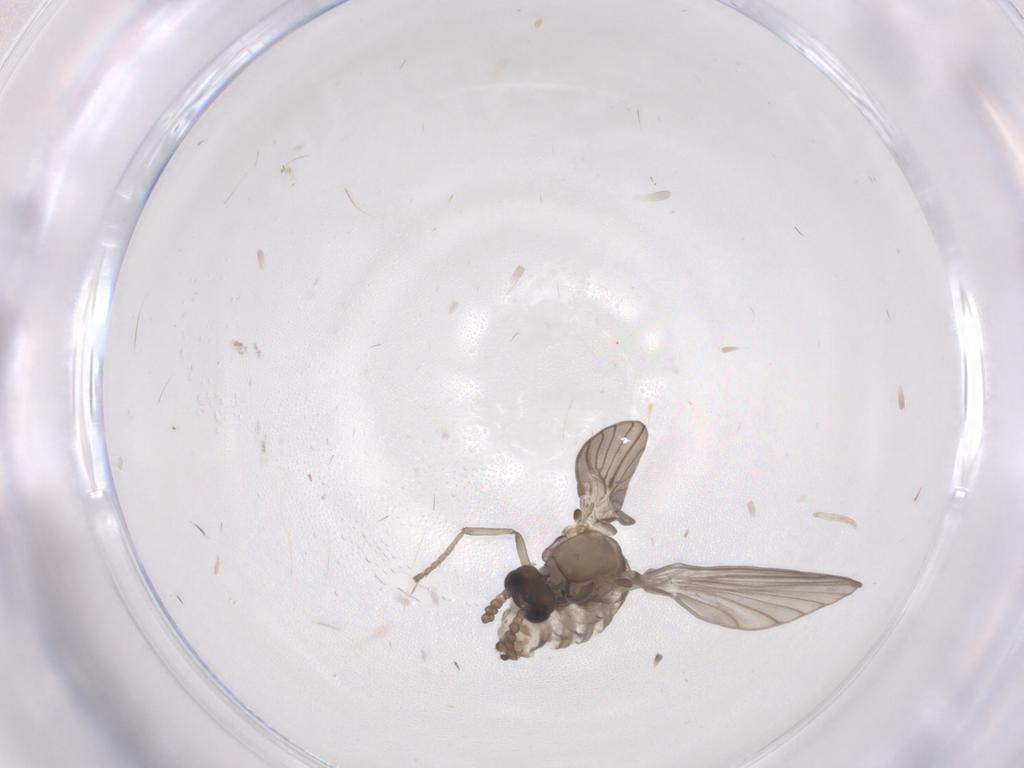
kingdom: Animalia
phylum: Arthropoda
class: Insecta
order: Diptera
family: Psychodidae
